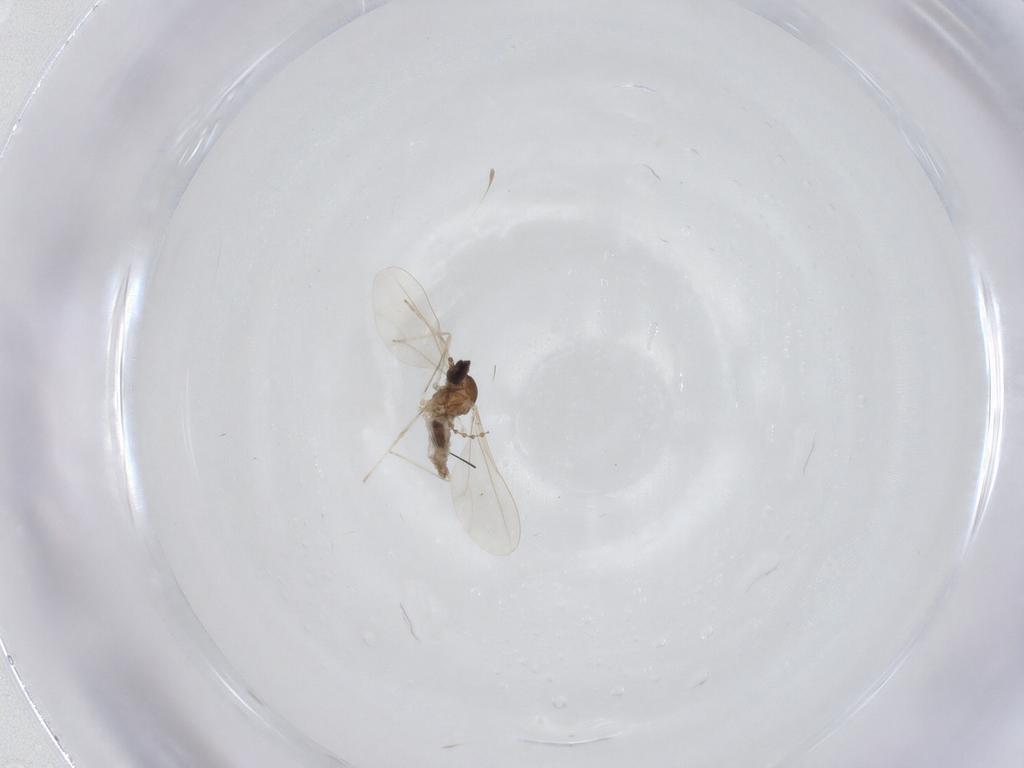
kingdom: Animalia
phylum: Arthropoda
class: Insecta
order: Diptera
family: Cecidomyiidae
